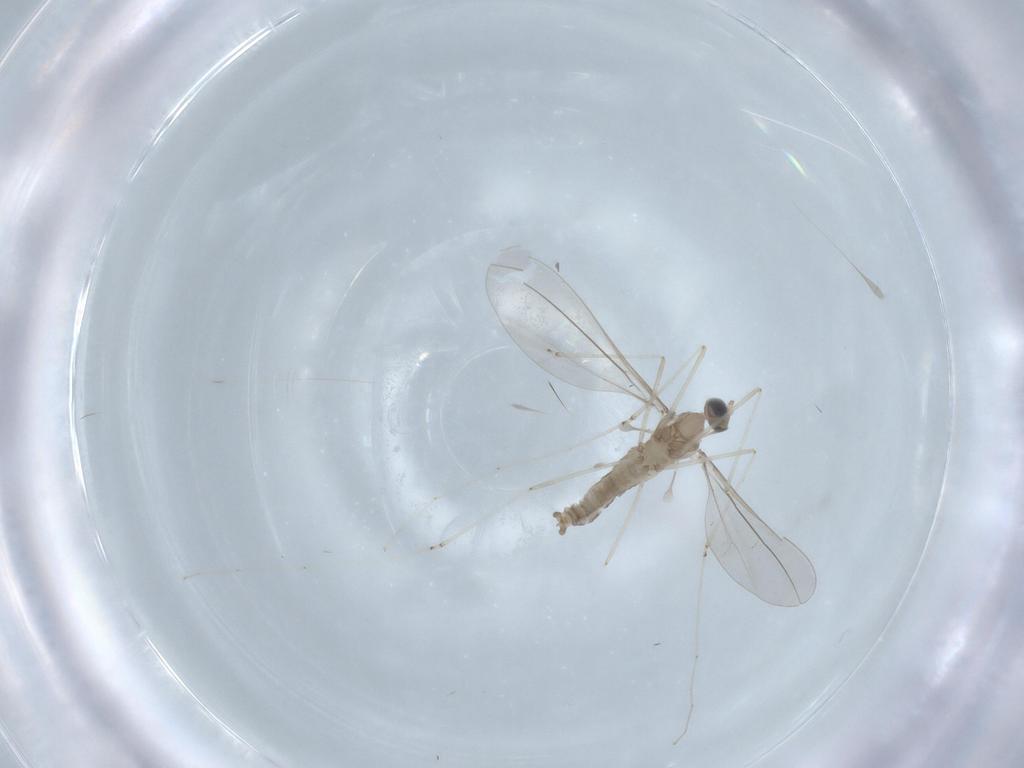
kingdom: Animalia
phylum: Arthropoda
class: Insecta
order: Diptera
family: Cecidomyiidae
